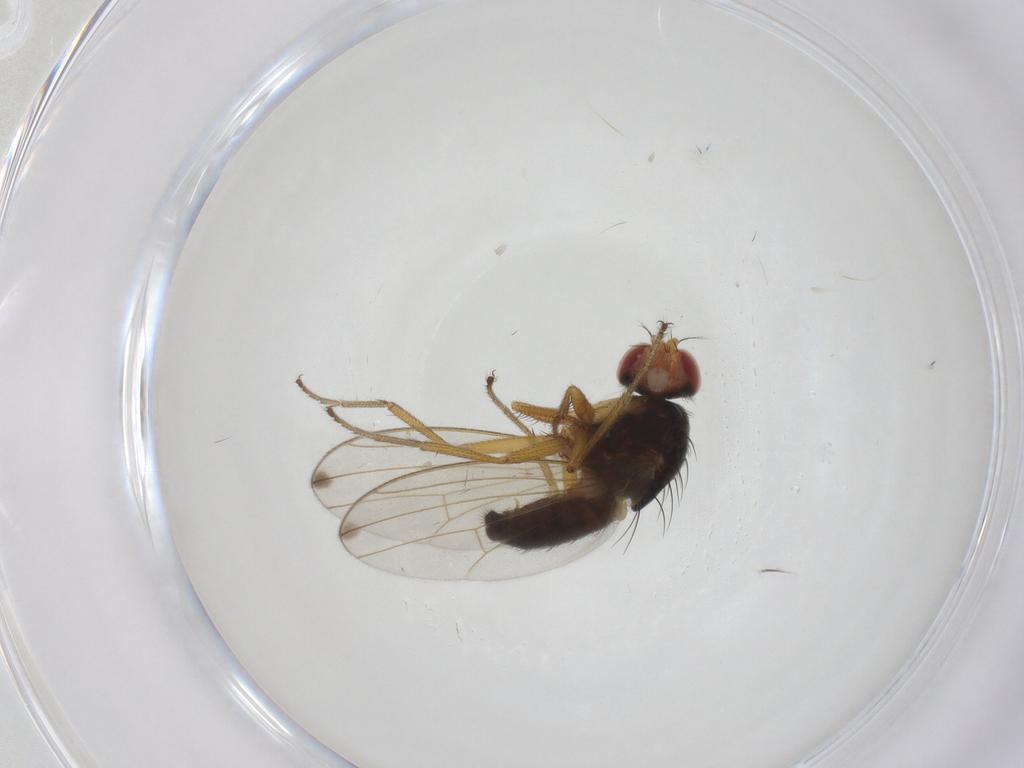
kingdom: Animalia
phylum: Arthropoda
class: Insecta
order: Diptera
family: Drosophilidae
